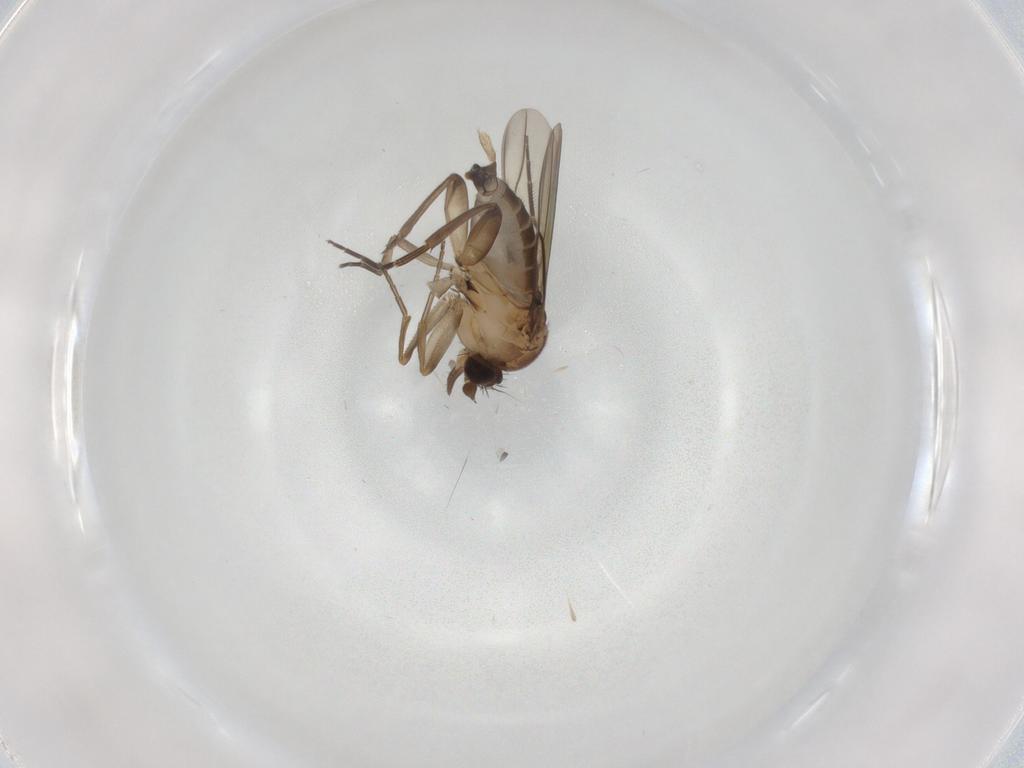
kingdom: Animalia
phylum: Arthropoda
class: Insecta
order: Diptera
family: Phoridae
